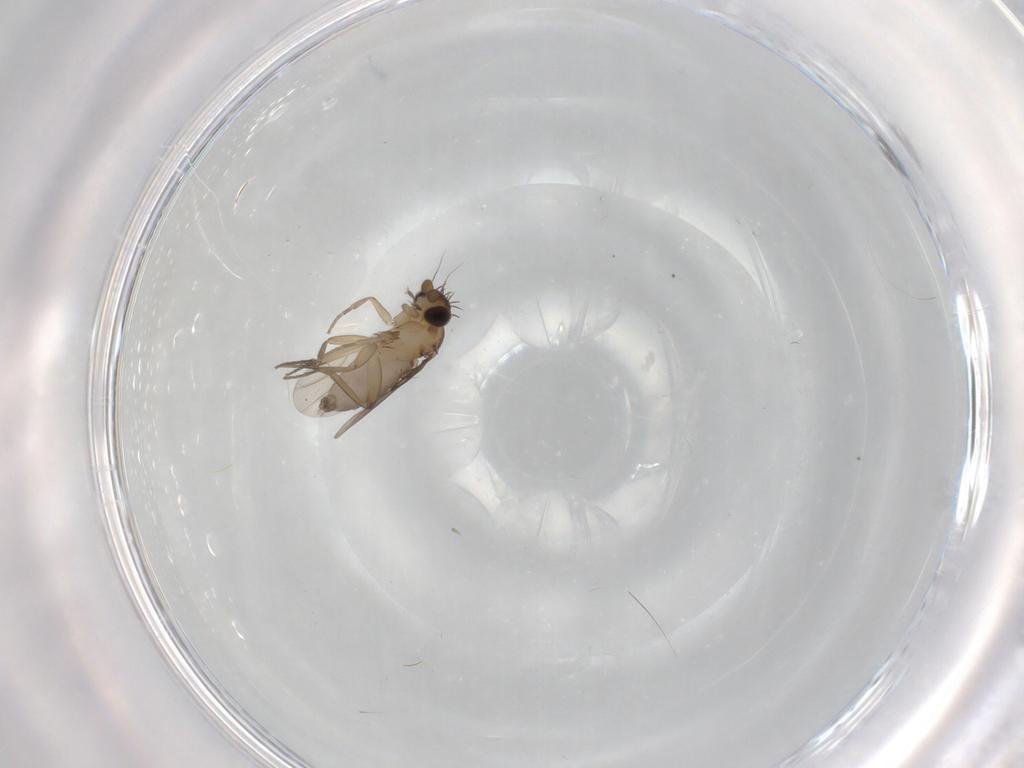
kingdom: Animalia
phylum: Arthropoda
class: Insecta
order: Diptera
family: Phoridae
